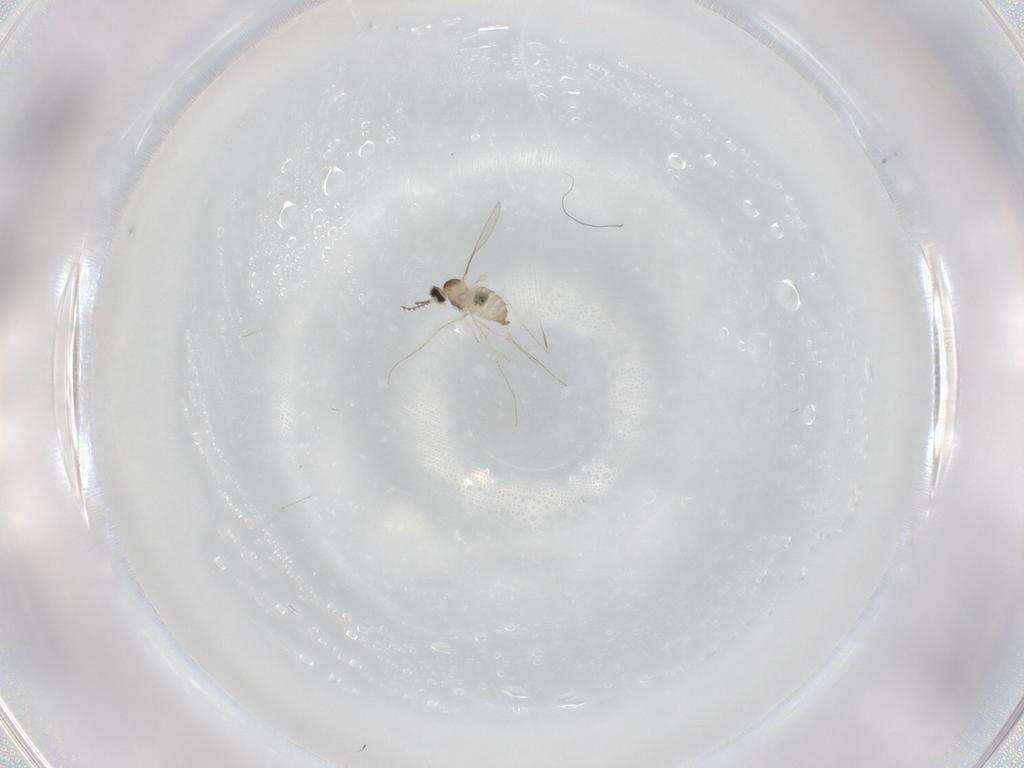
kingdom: Animalia
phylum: Arthropoda
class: Insecta
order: Diptera
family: Cecidomyiidae
